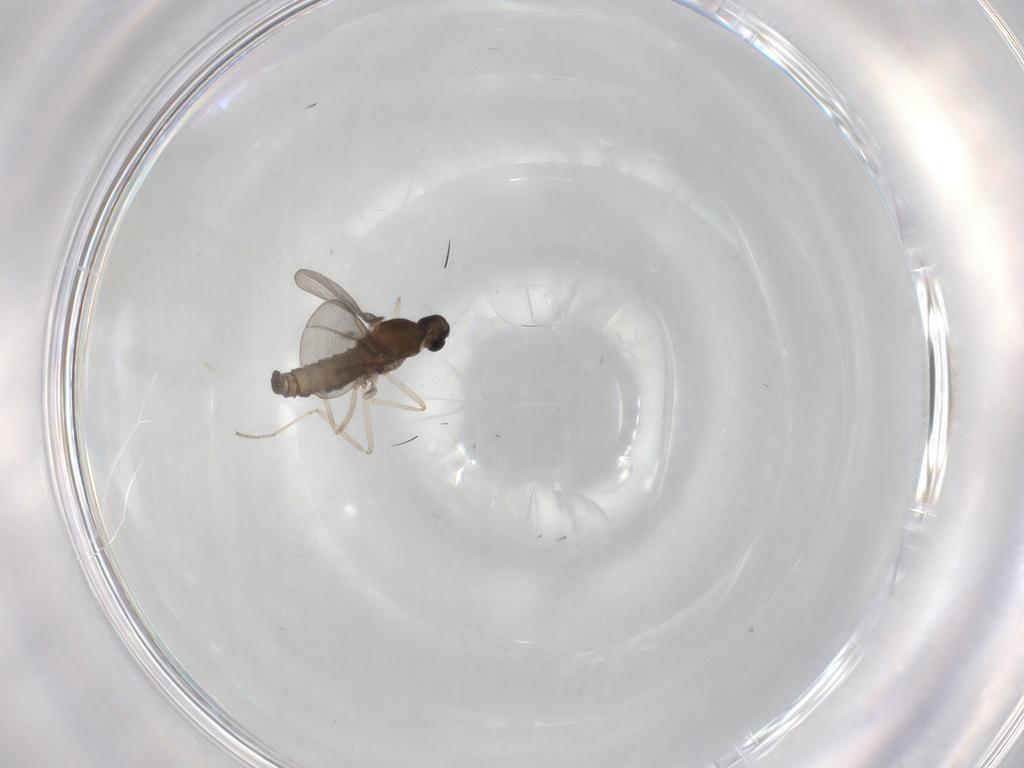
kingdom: Animalia
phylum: Arthropoda
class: Insecta
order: Diptera
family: Cecidomyiidae
